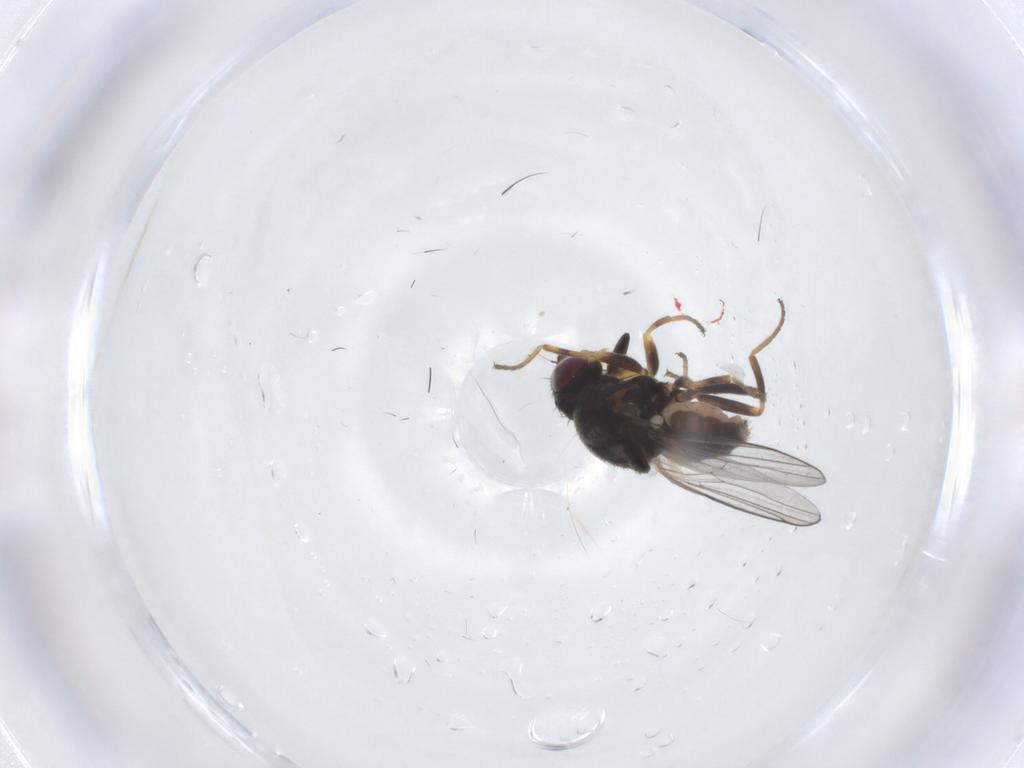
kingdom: Animalia
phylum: Arthropoda
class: Insecta
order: Diptera
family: Chloropidae
